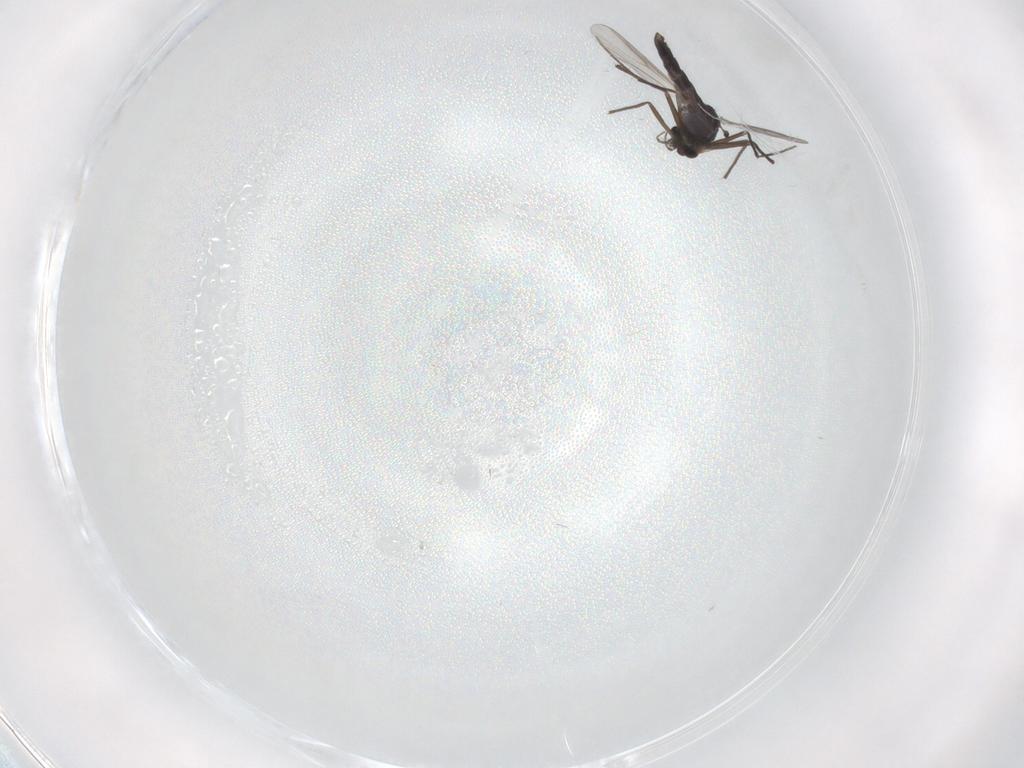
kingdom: Animalia
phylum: Arthropoda
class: Insecta
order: Diptera
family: Chironomidae
